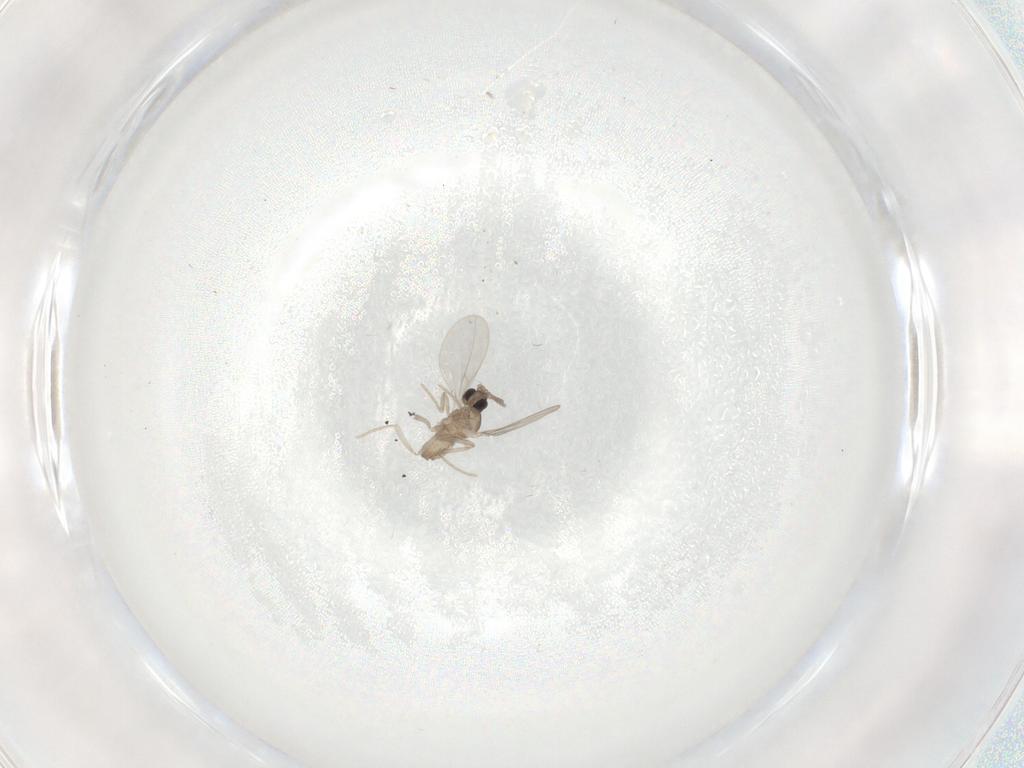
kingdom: Animalia
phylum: Arthropoda
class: Insecta
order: Diptera
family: Cecidomyiidae
